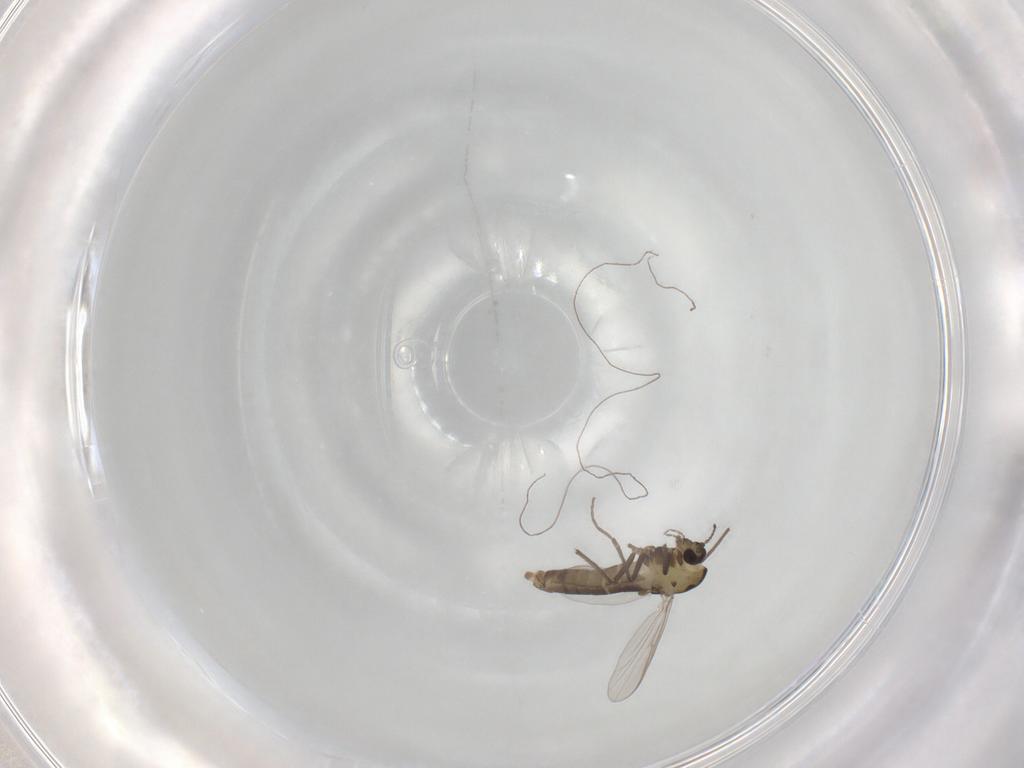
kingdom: Animalia
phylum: Arthropoda
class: Insecta
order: Diptera
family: Chironomidae
